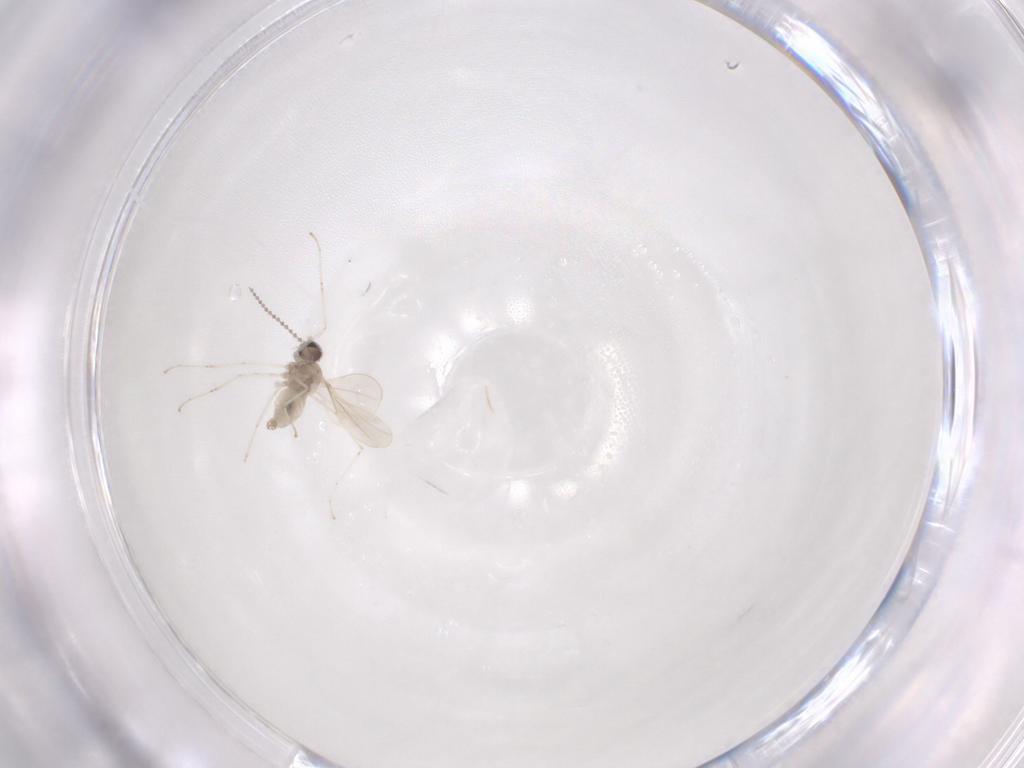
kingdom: Animalia
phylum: Arthropoda
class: Insecta
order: Diptera
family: Cecidomyiidae
